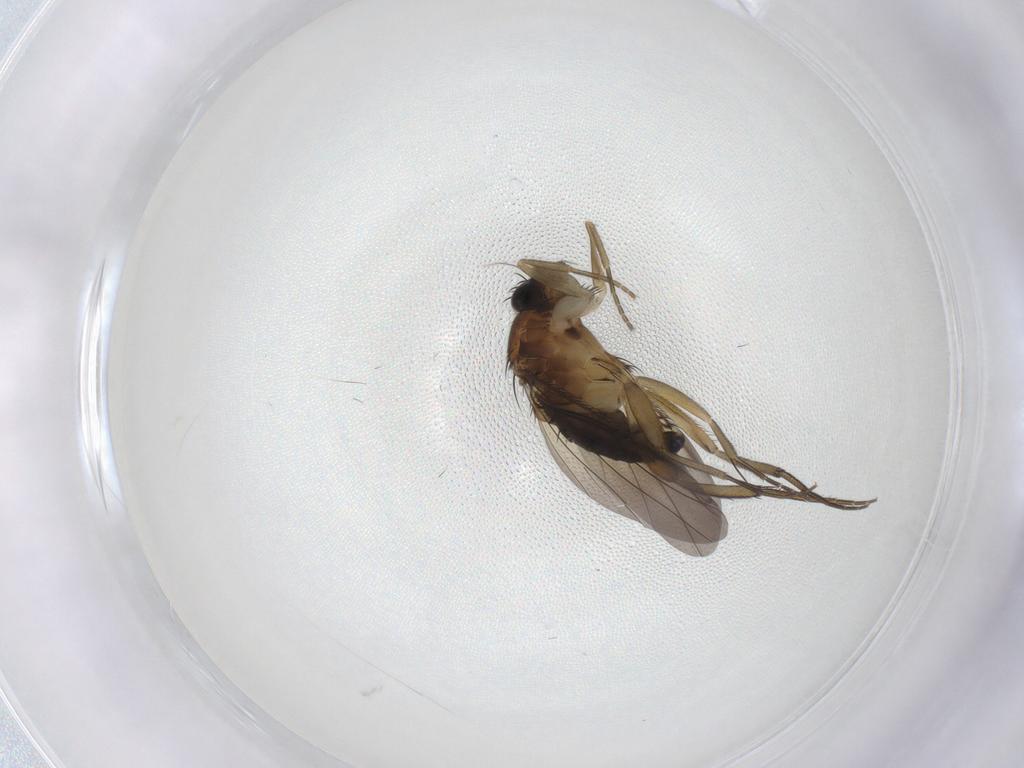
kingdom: Animalia
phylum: Arthropoda
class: Insecta
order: Diptera
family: Phoridae
